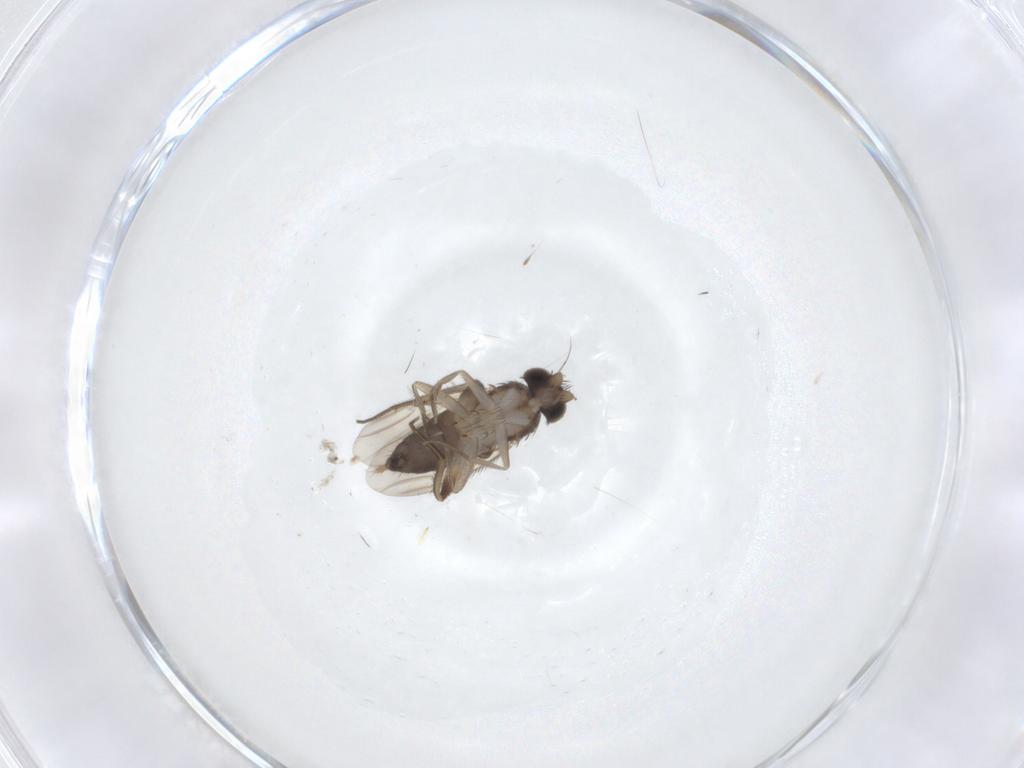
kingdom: Animalia
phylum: Arthropoda
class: Insecta
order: Diptera
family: Phoridae
